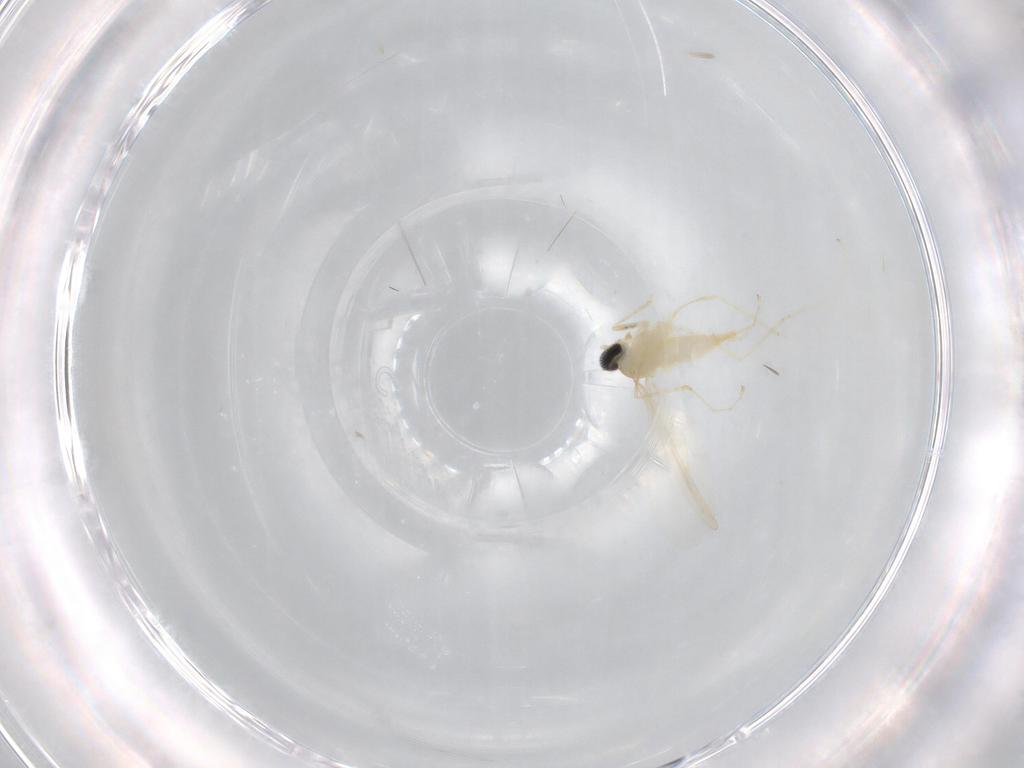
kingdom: Animalia
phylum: Arthropoda
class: Insecta
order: Diptera
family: Cecidomyiidae
